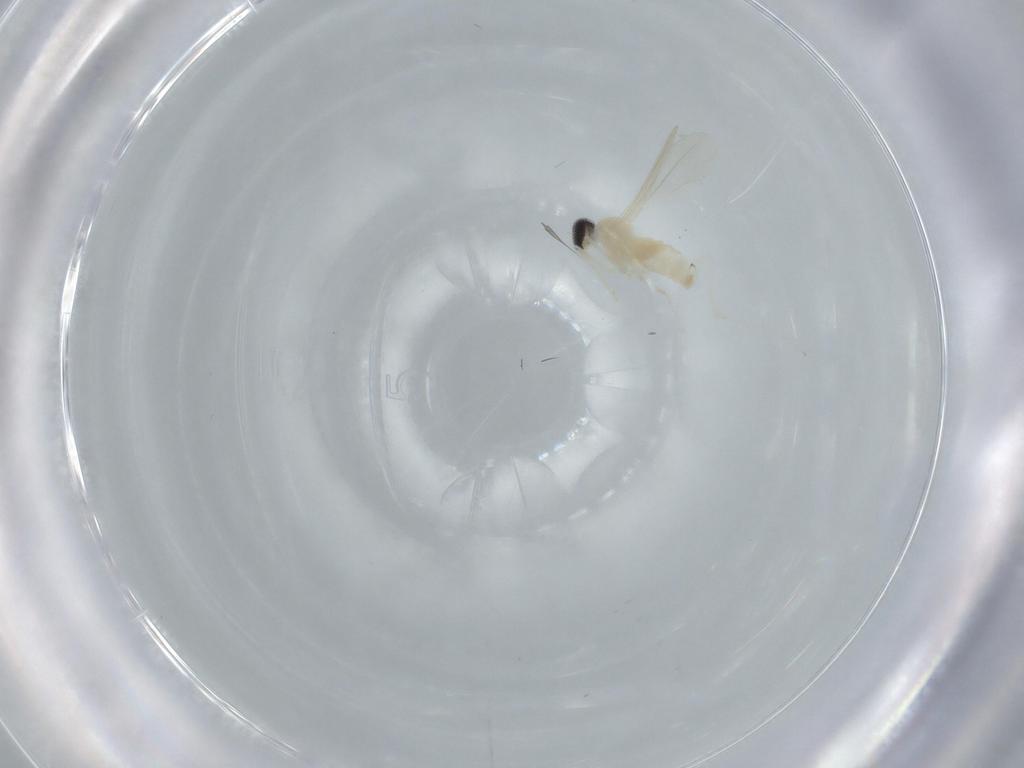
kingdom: Animalia
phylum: Arthropoda
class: Insecta
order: Diptera
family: Cecidomyiidae
